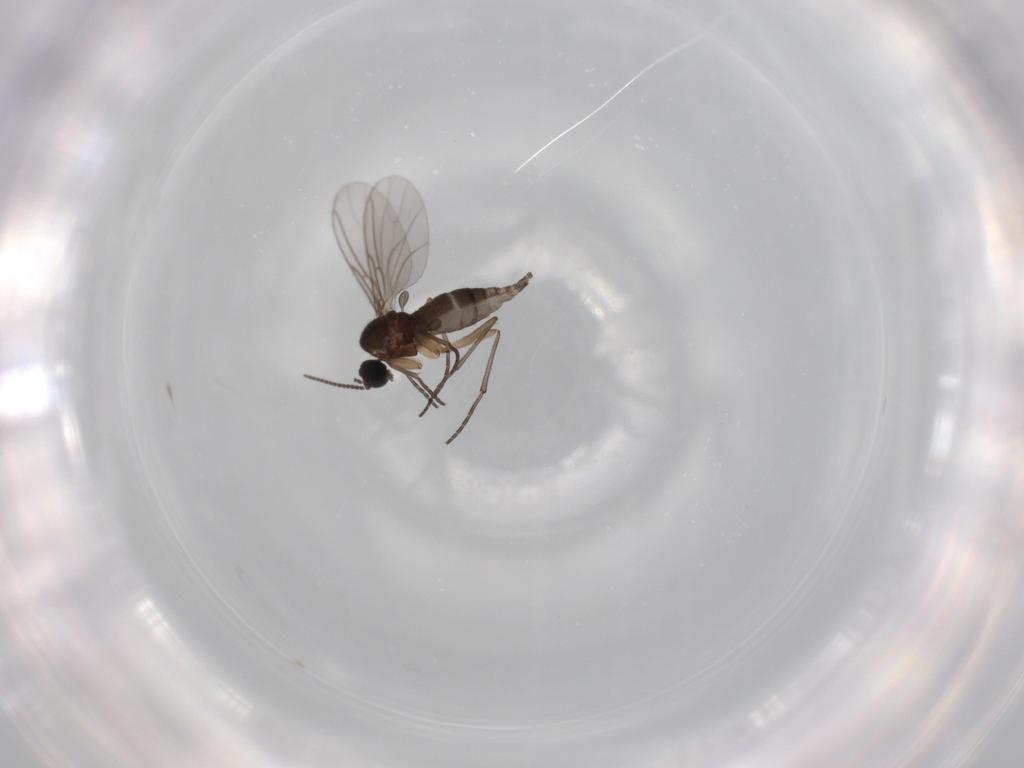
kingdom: Animalia
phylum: Arthropoda
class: Insecta
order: Diptera
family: Sciaridae
